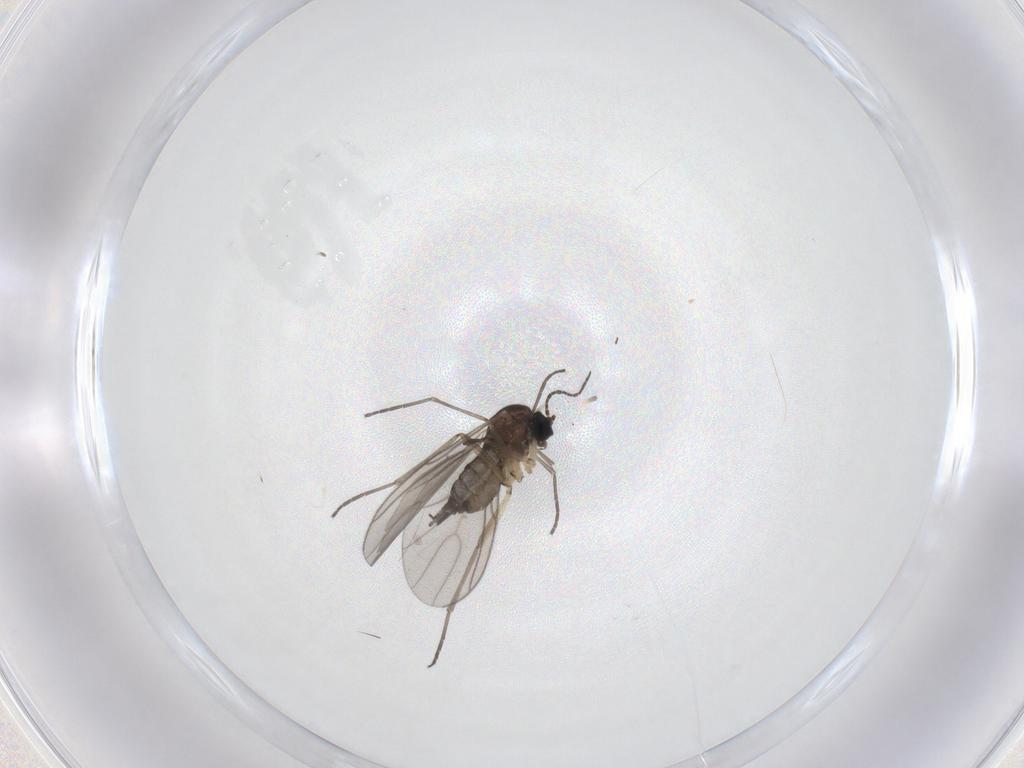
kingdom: Animalia
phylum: Arthropoda
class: Insecta
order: Diptera
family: Sciaridae
